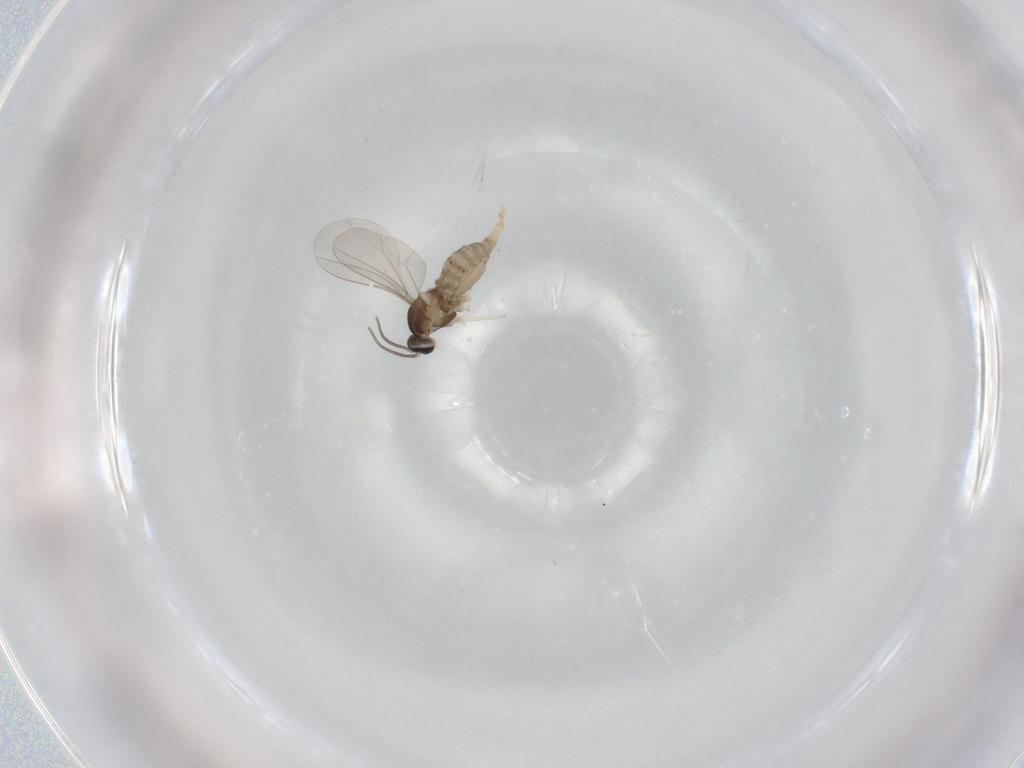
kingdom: Animalia
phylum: Arthropoda
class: Insecta
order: Diptera
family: Cecidomyiidae
